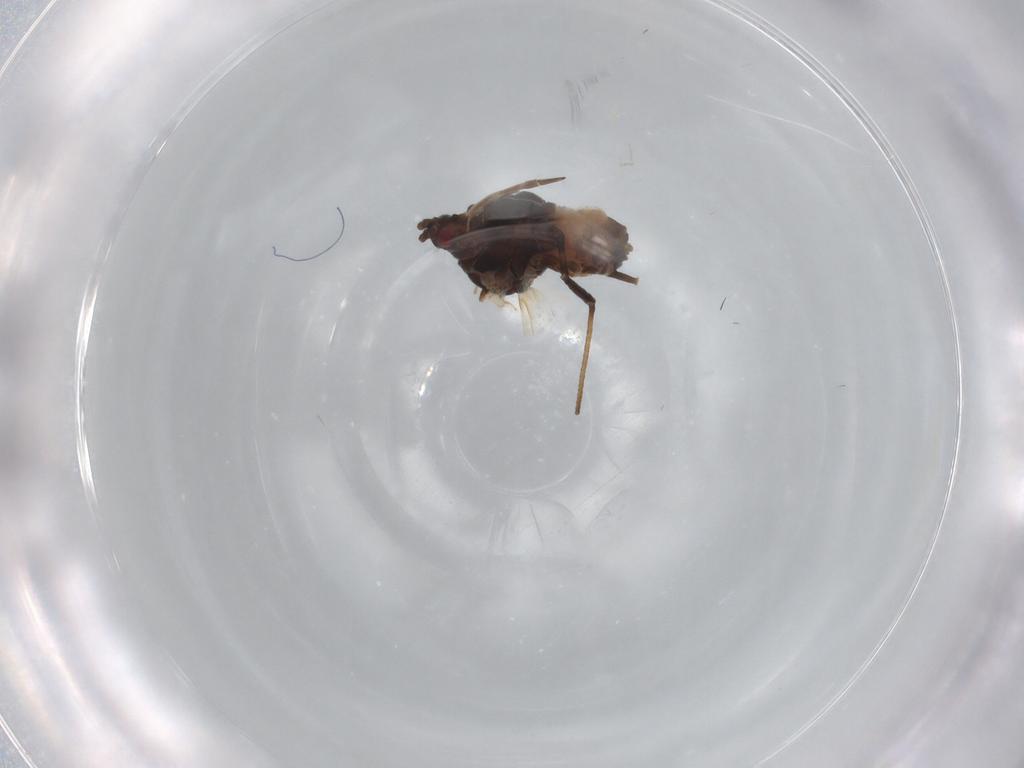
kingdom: Animalia
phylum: Arthropoda
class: Insecta
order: Hemiptera
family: Aphididae
